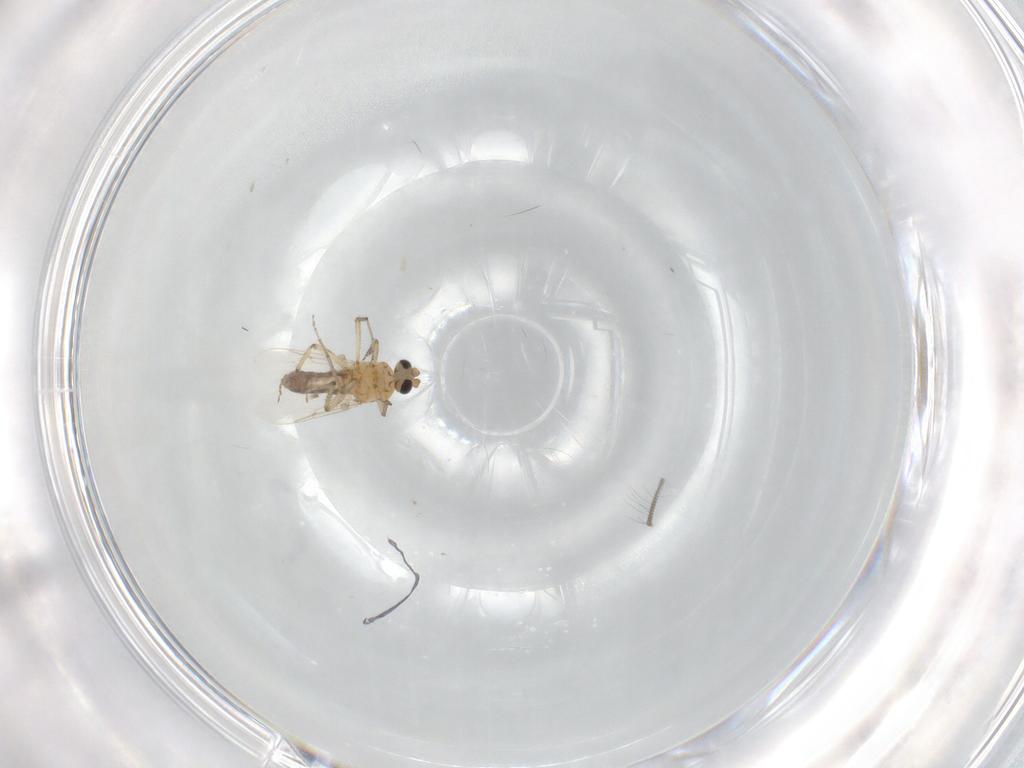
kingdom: Animalia
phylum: Arthropoda
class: Insecta
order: Diptera
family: Ceratopogonidae
